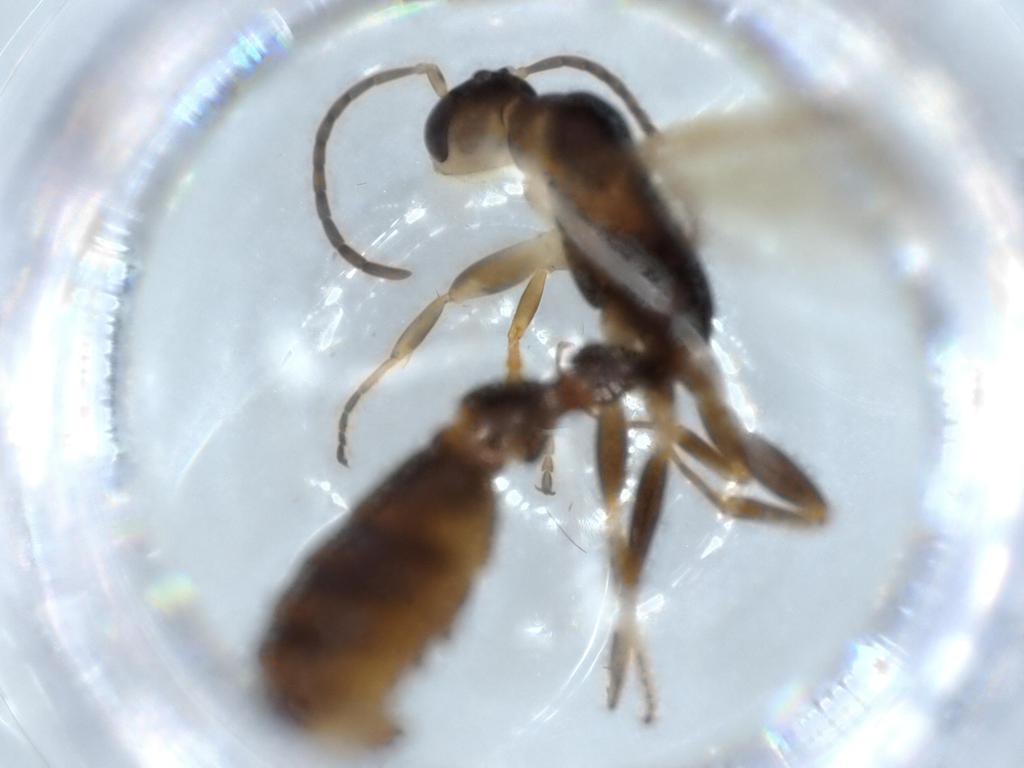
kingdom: Animalia
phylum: Arthropoda
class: Insecta
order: Hymenoptera
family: Formicidae
